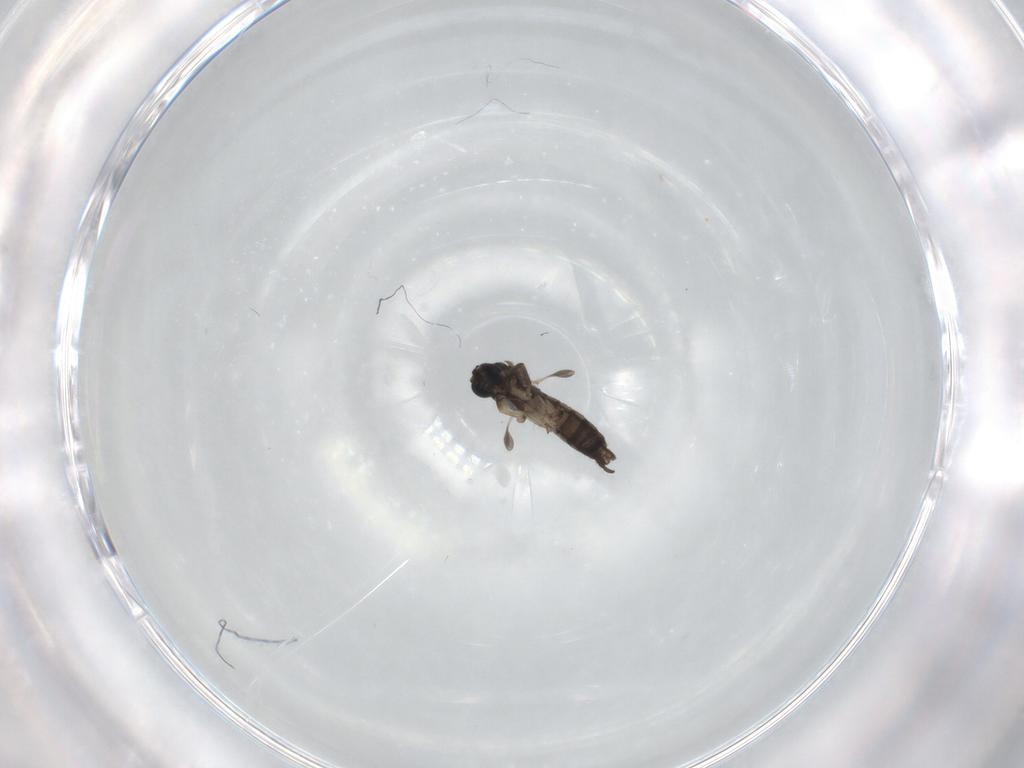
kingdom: Animalia
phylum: Arthropoda
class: Insecta
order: Diptera
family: Sciaridae
